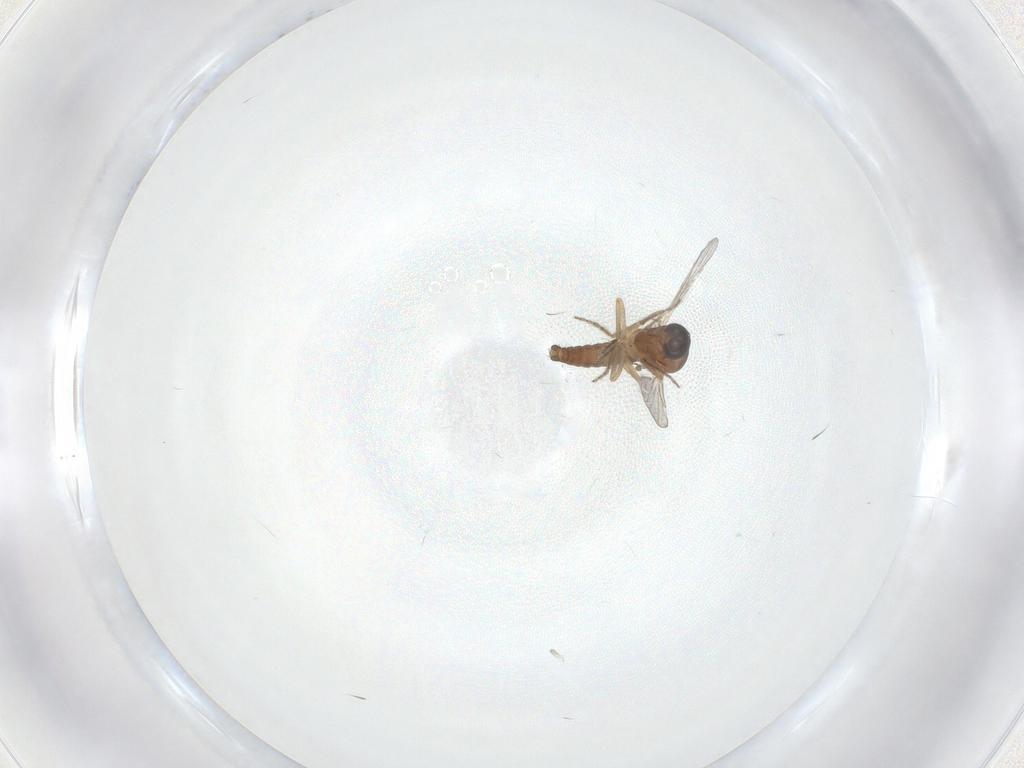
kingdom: Animalia
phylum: Arthropoda
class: Insecta
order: Diptera
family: Ceratopogonidae
